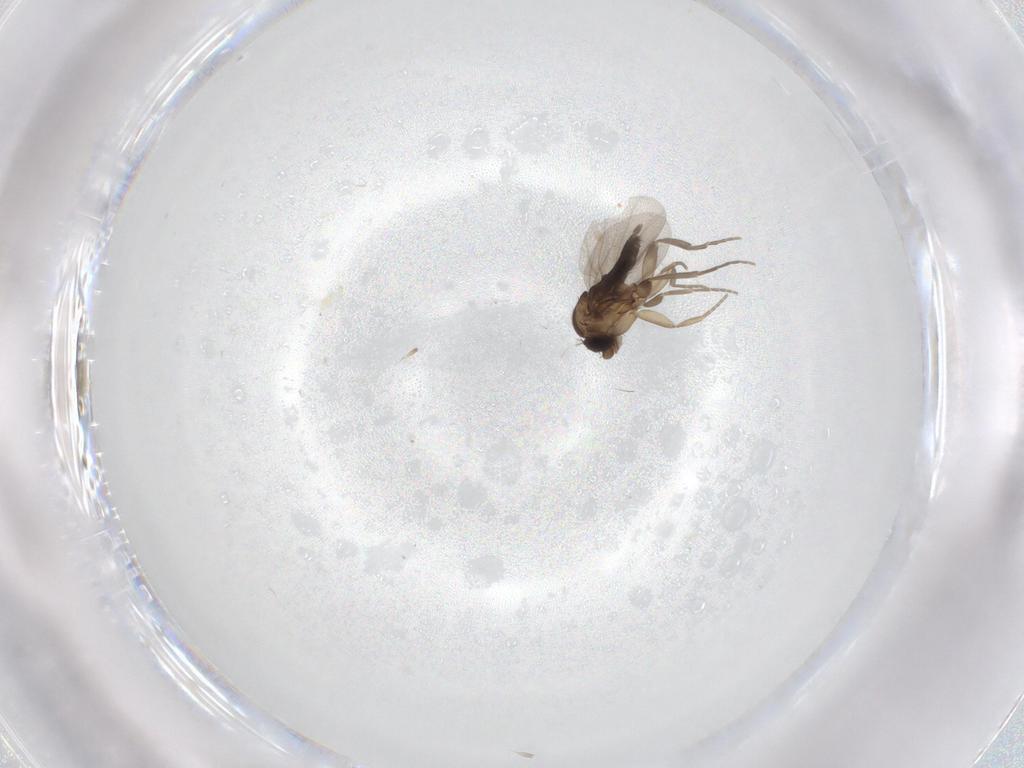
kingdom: Animalia
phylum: Arthropoda
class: Insecta
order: Diptera
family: Phoridae
